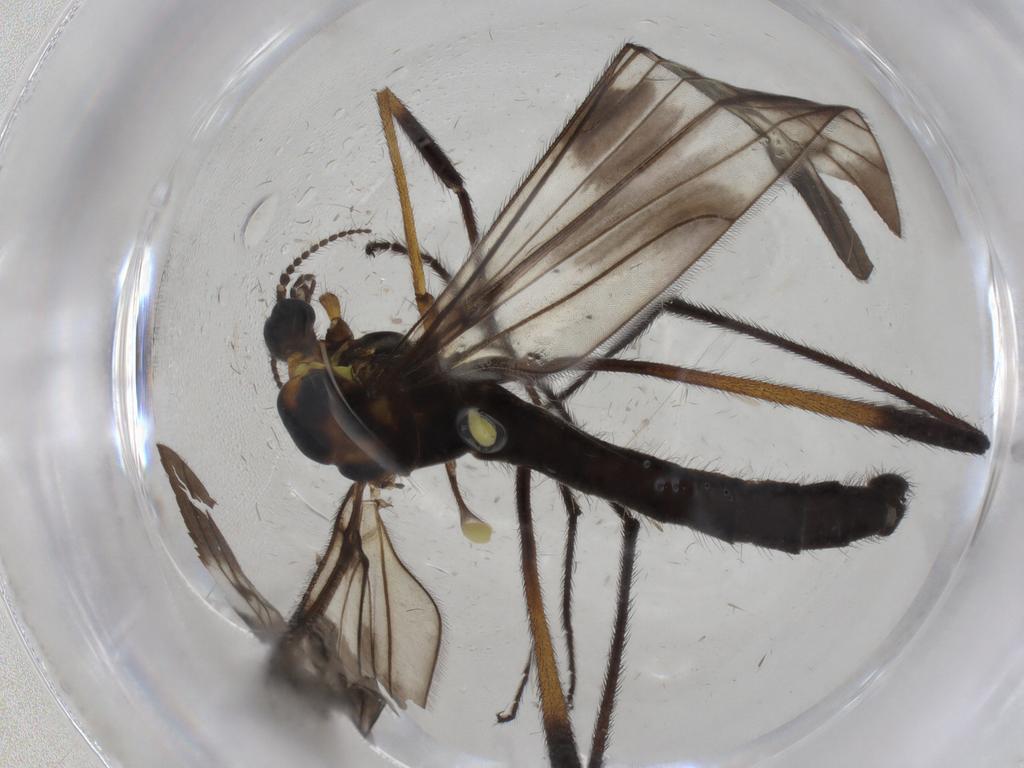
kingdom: Animalia
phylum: Arthropoda
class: Insecta
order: Diptera
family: Limoniidae
